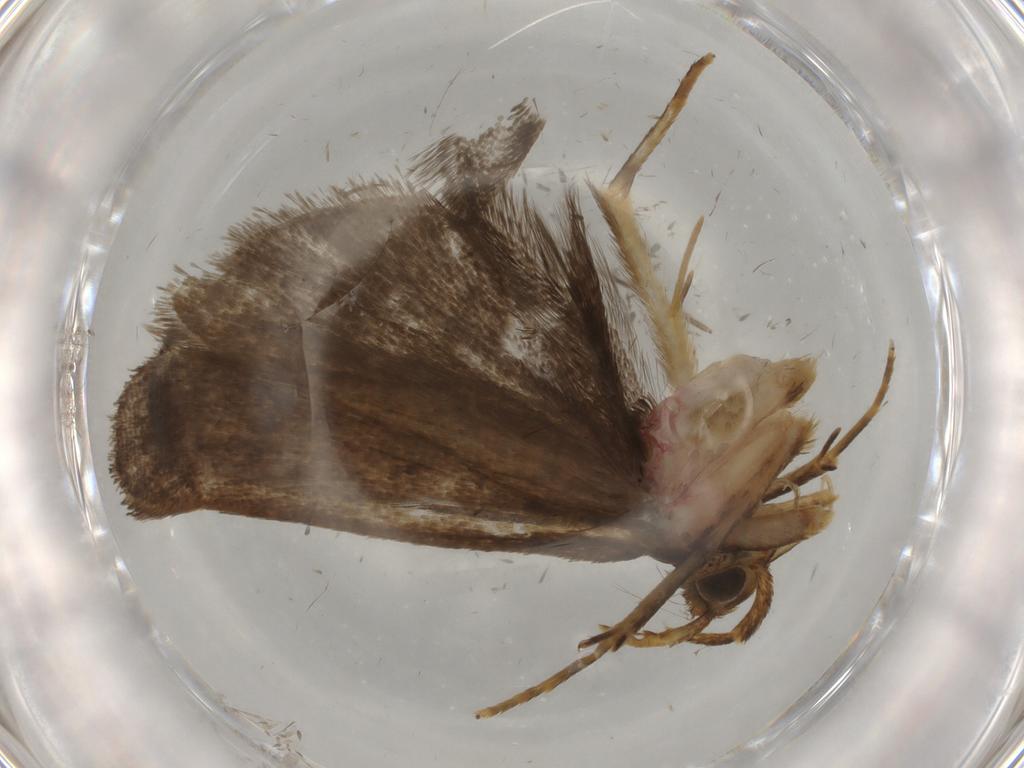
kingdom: Animalia
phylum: Arthropoda
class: Insecta
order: Lepidoptera
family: Autostichidae
